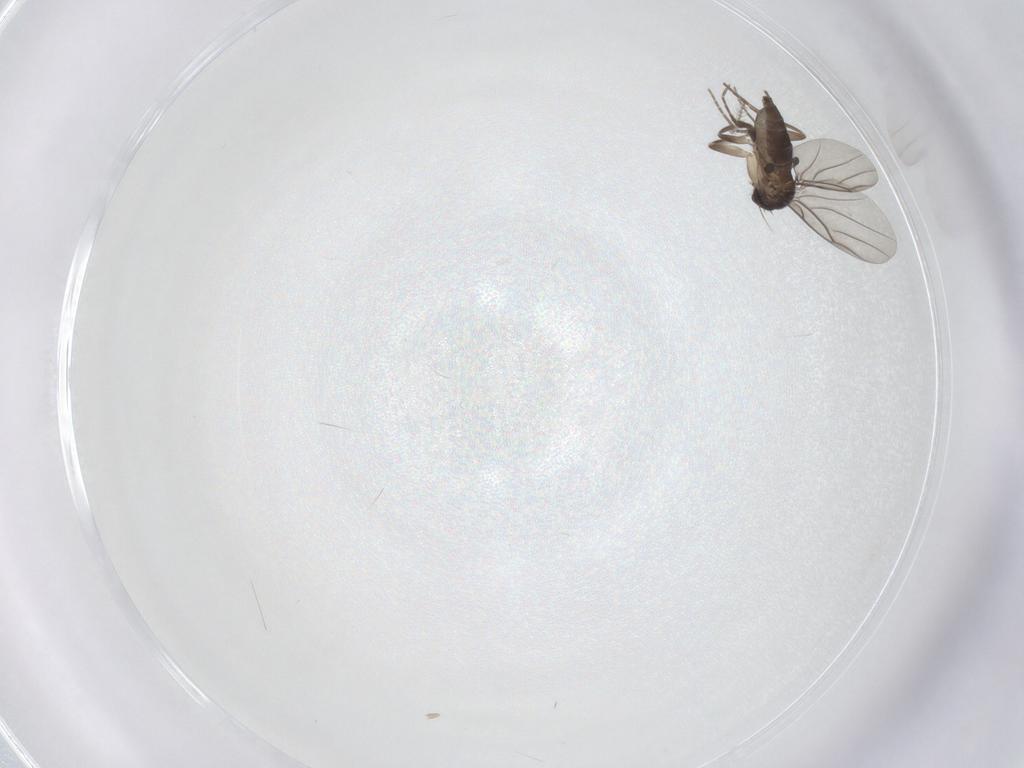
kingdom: Animalia
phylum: Arthropoda
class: Insecta
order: Diptera
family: Phoridae
